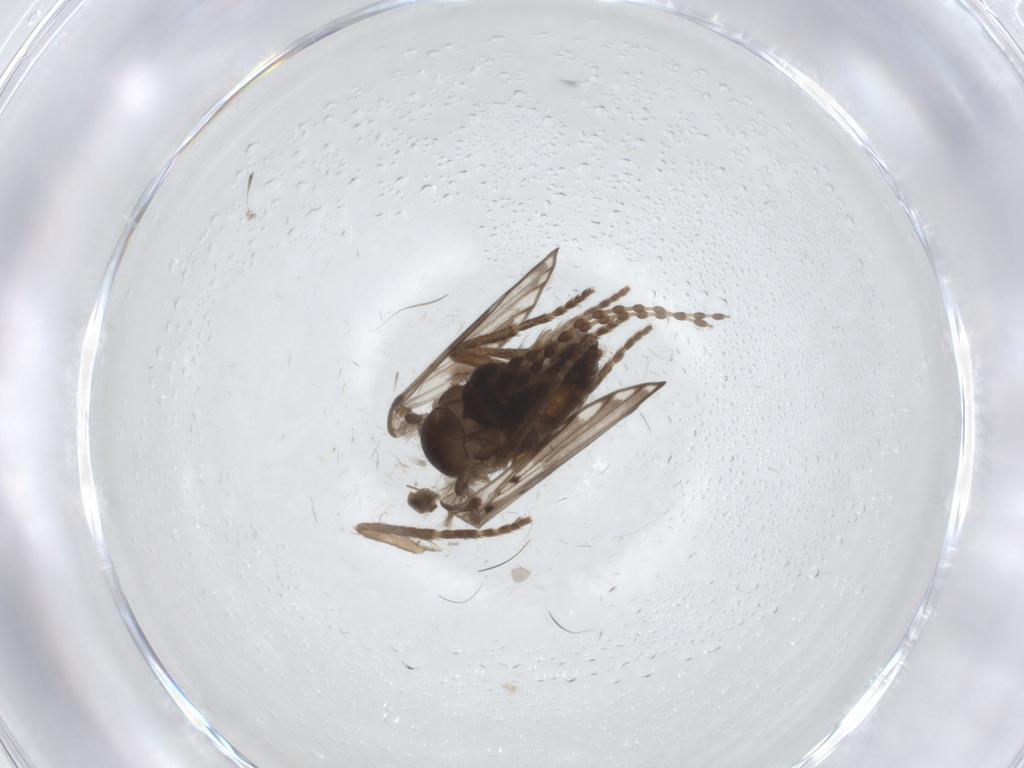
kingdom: Animalia
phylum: Arthropoda
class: Insecta
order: Diptera
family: Psychodidae
